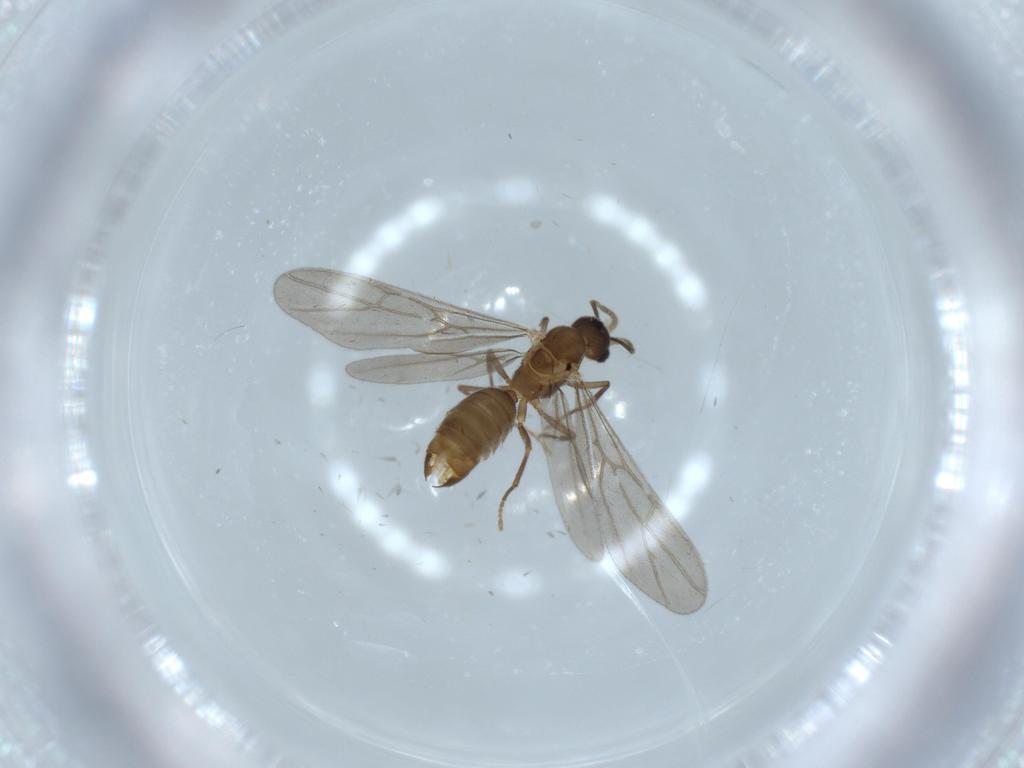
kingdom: Animalia
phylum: Arthropoda
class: Insecta
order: Hymenoptera
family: Formicidae
